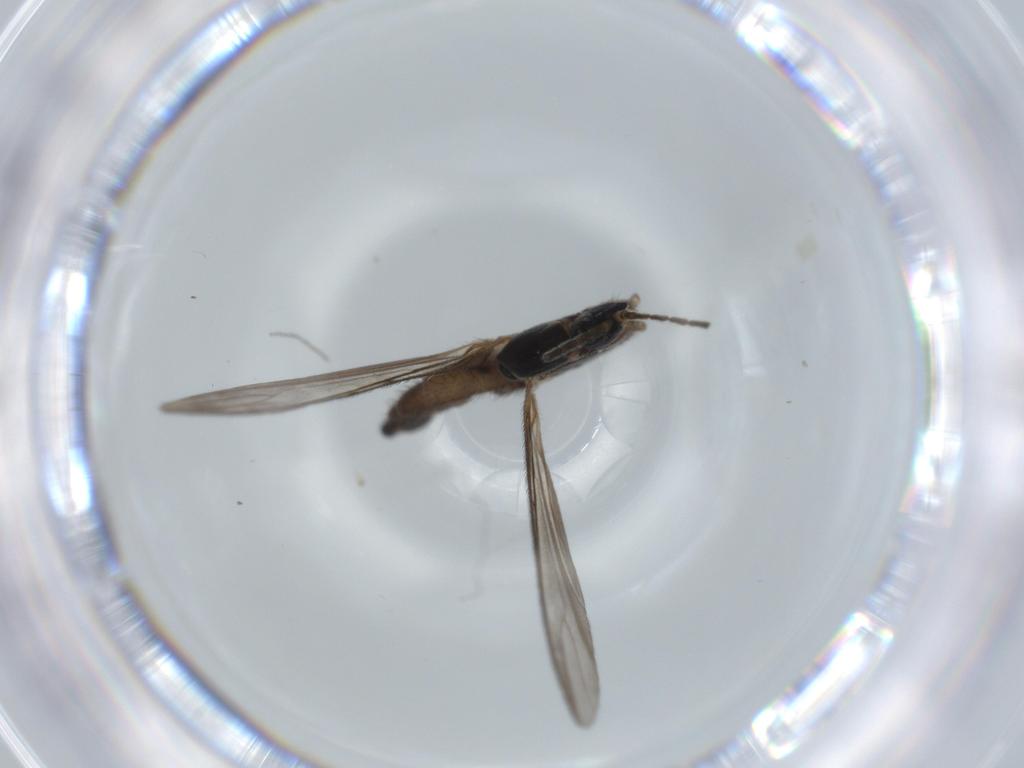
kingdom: Animalia
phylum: Arthropoda
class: Insecta
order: Diptera
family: Sciaridae
